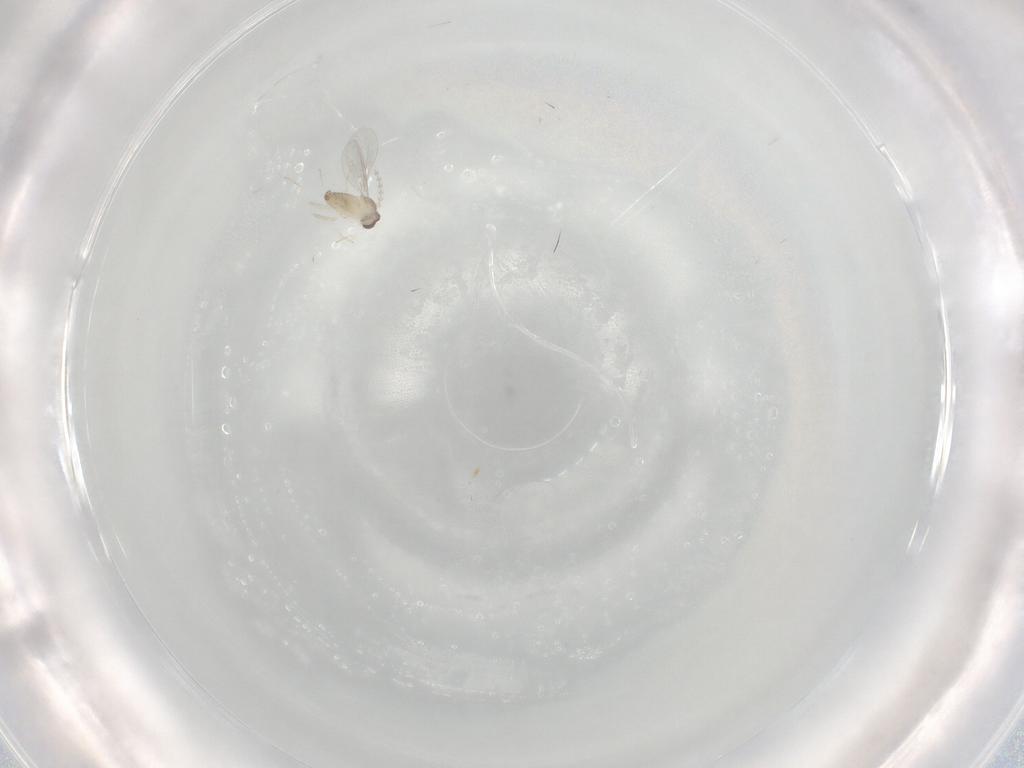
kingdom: Animalia
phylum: Arthropoda
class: Insecta
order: Diptera
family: Cecidomyiidae
